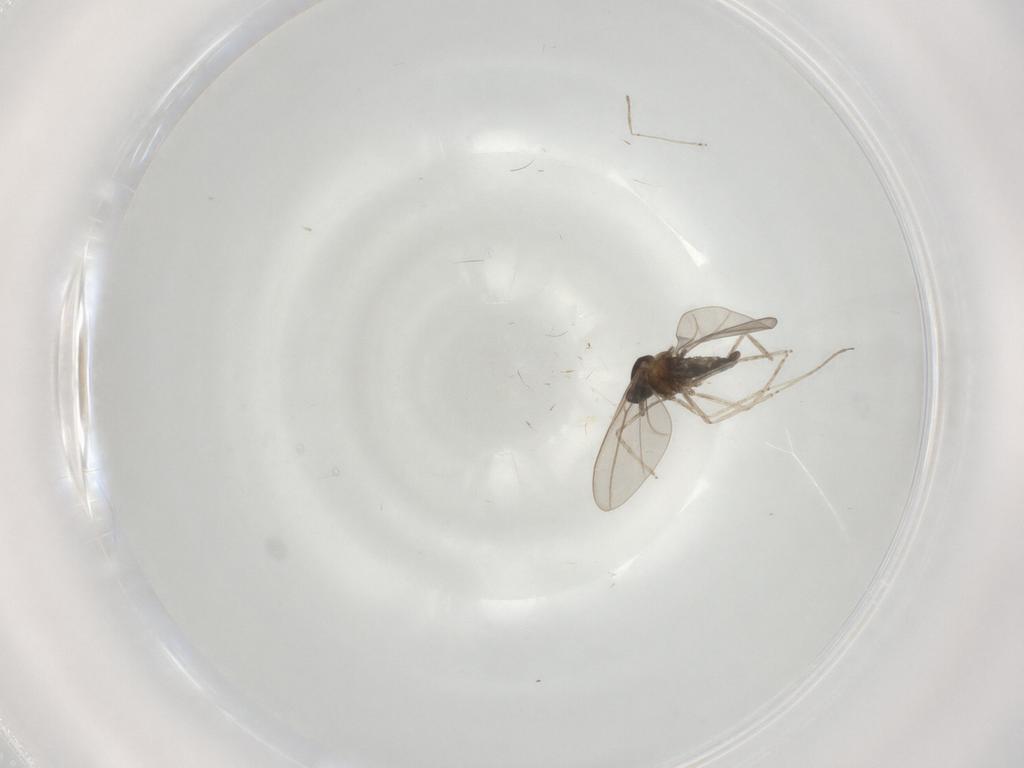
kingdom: Animalia
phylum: Arthropoda
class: Insecta
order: Diptera
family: Cecidomyiidae
